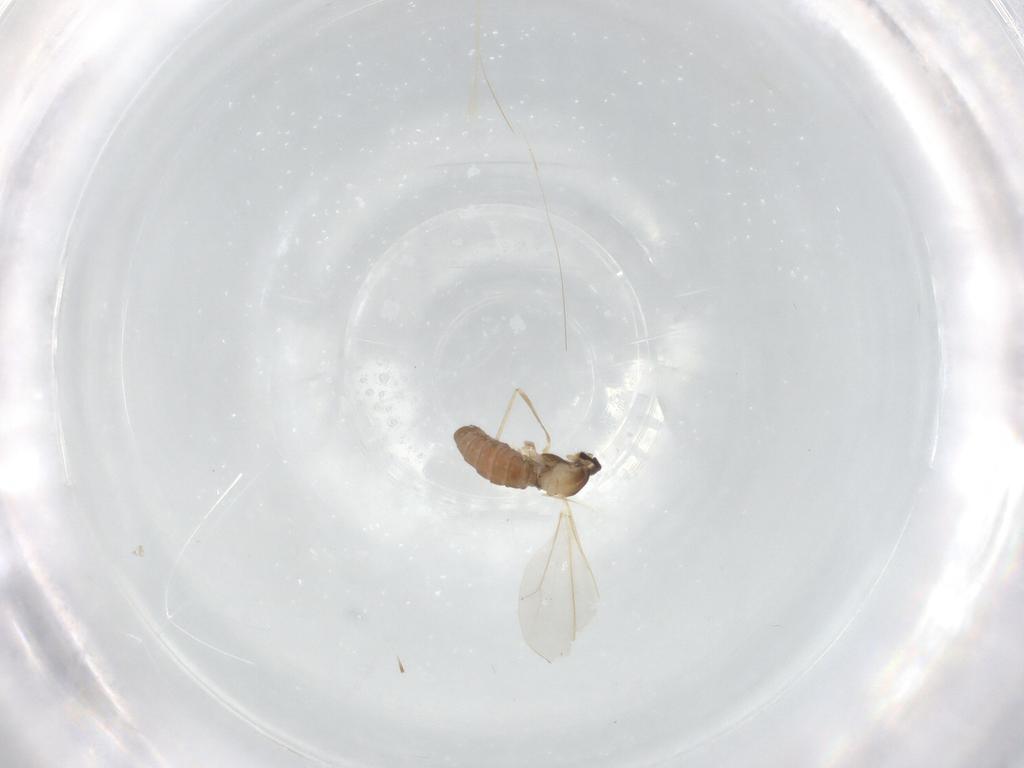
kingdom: Animalia
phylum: Arthropoda
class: Insecta
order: Diptera
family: Cecidomyiidae
